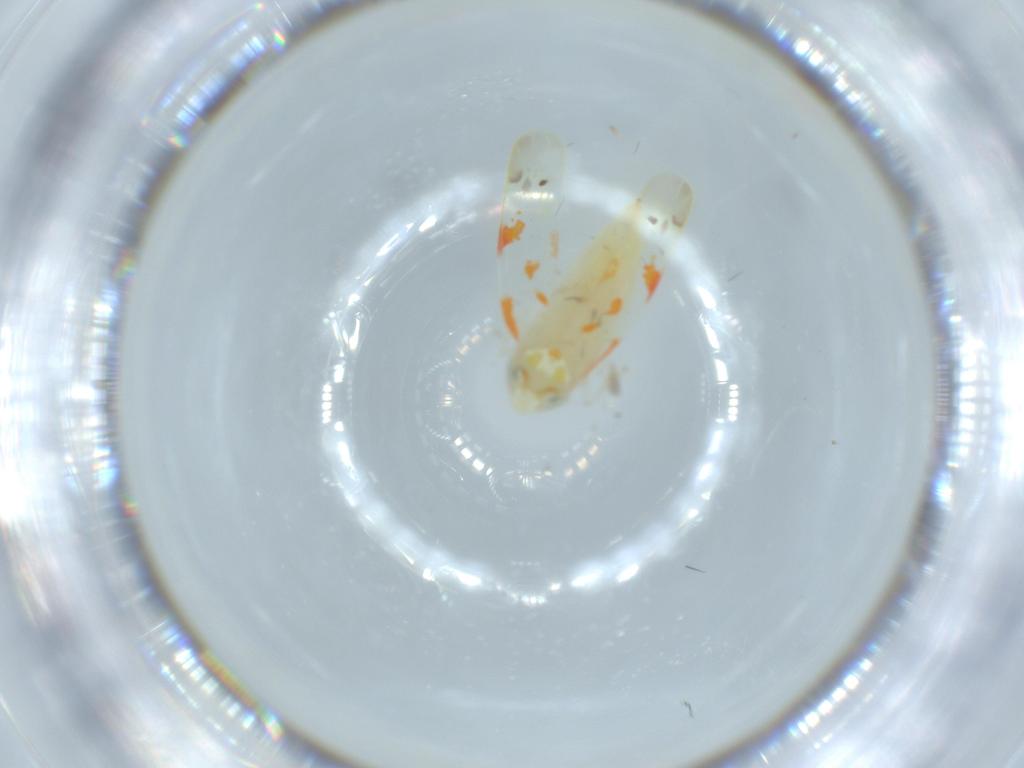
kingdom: Animalia
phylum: Arthropoda
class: Insecta
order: Hemiptera
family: Cicadellidae
